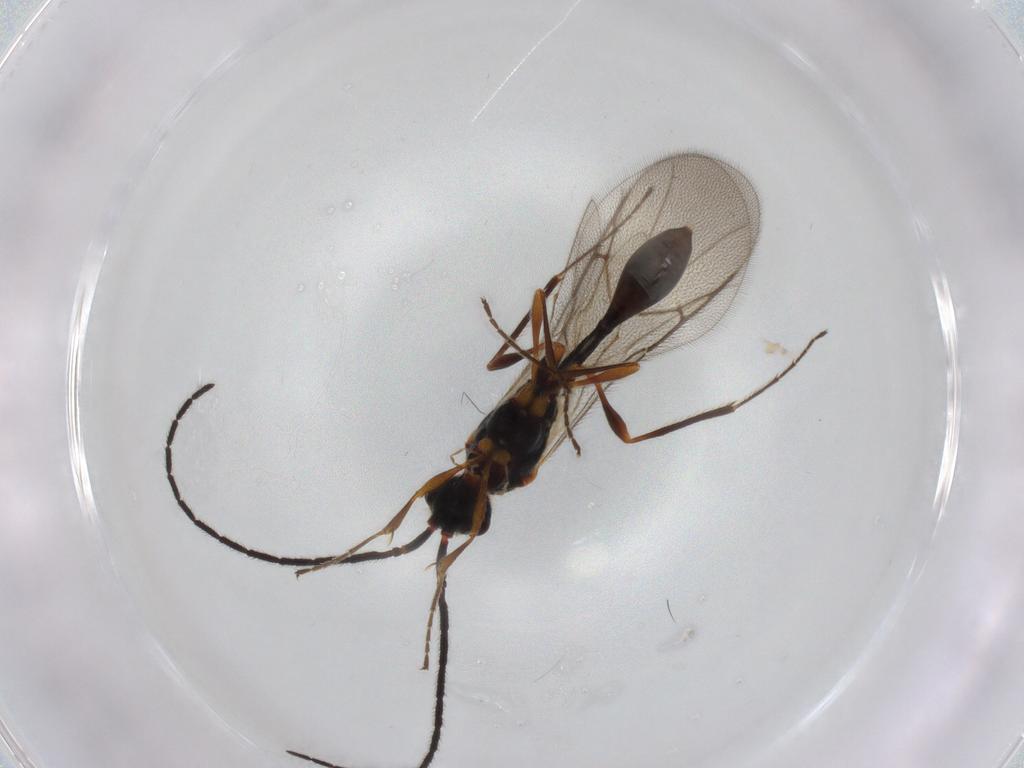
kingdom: Animalia
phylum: Arthropoda
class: Insecta
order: Hymenoptera
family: Diapriidae
